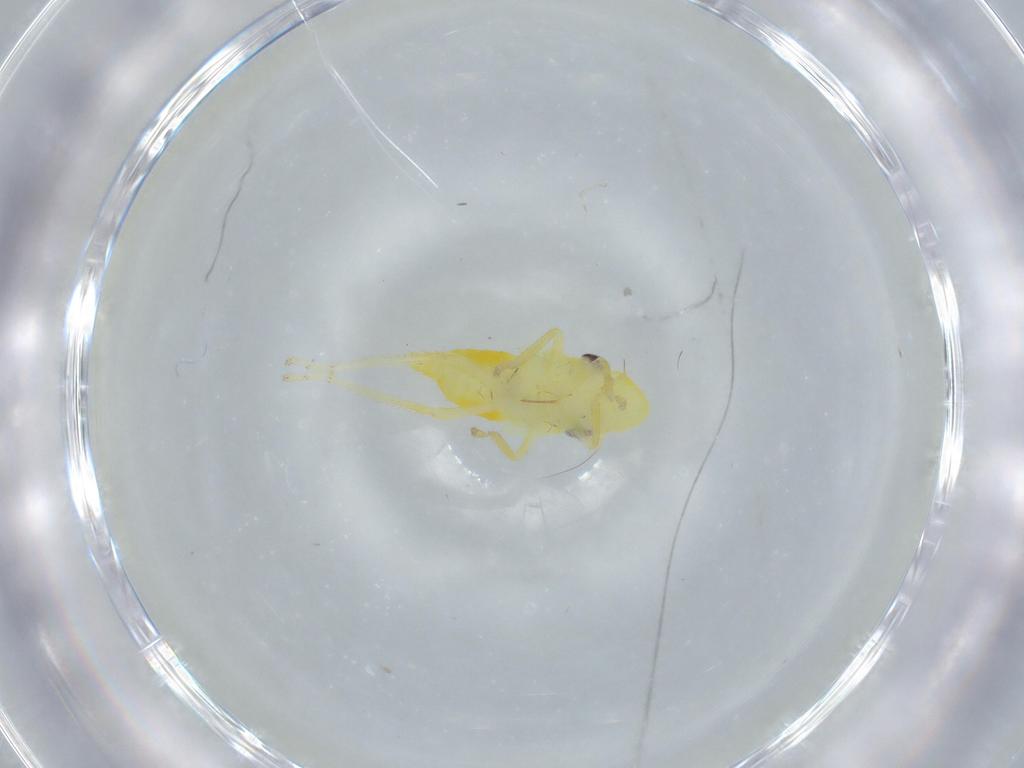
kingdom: Animalia
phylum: Arthropoda
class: Insecta
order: Hemiptera
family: Cicadellidae
